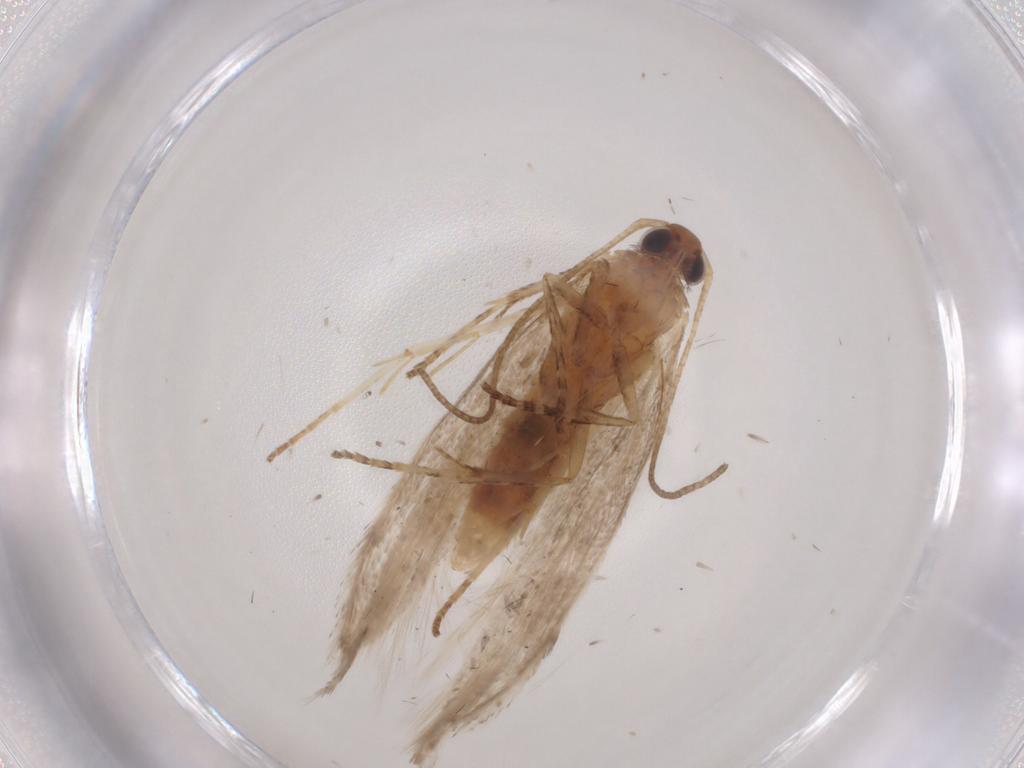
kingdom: Animalia
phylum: Arthropoda
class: Insecta
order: Lepidoptera
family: Gelechiidae
